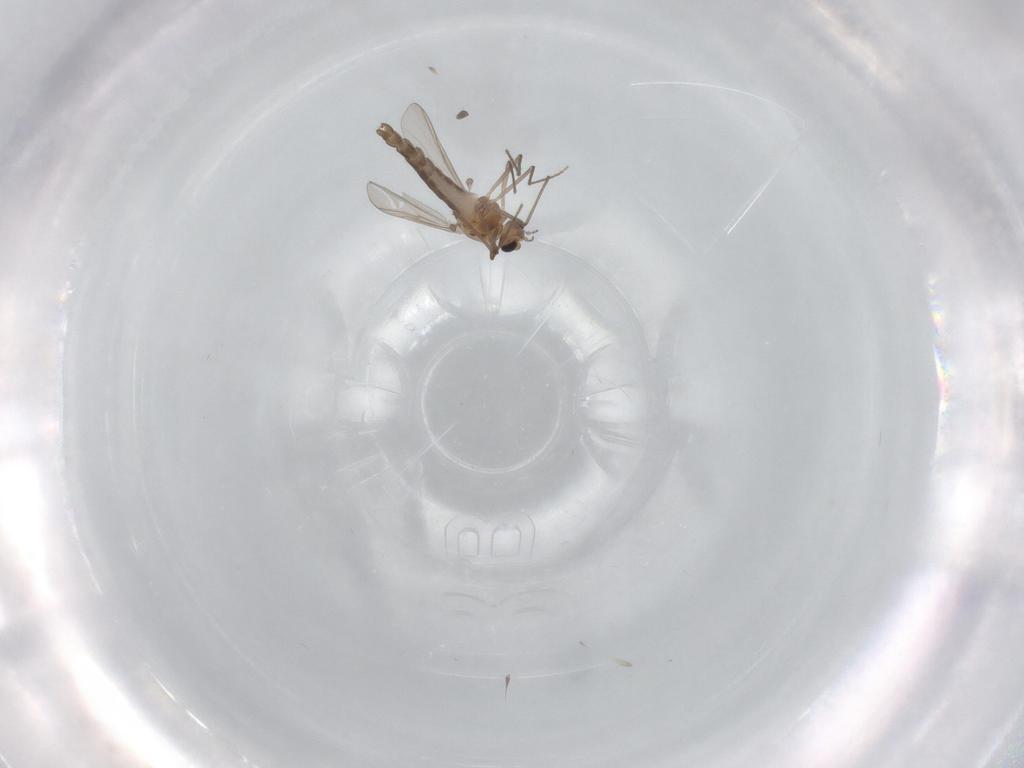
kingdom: Animalia
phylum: Arthropoda
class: Insecta
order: Diptera
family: Chironomidae
